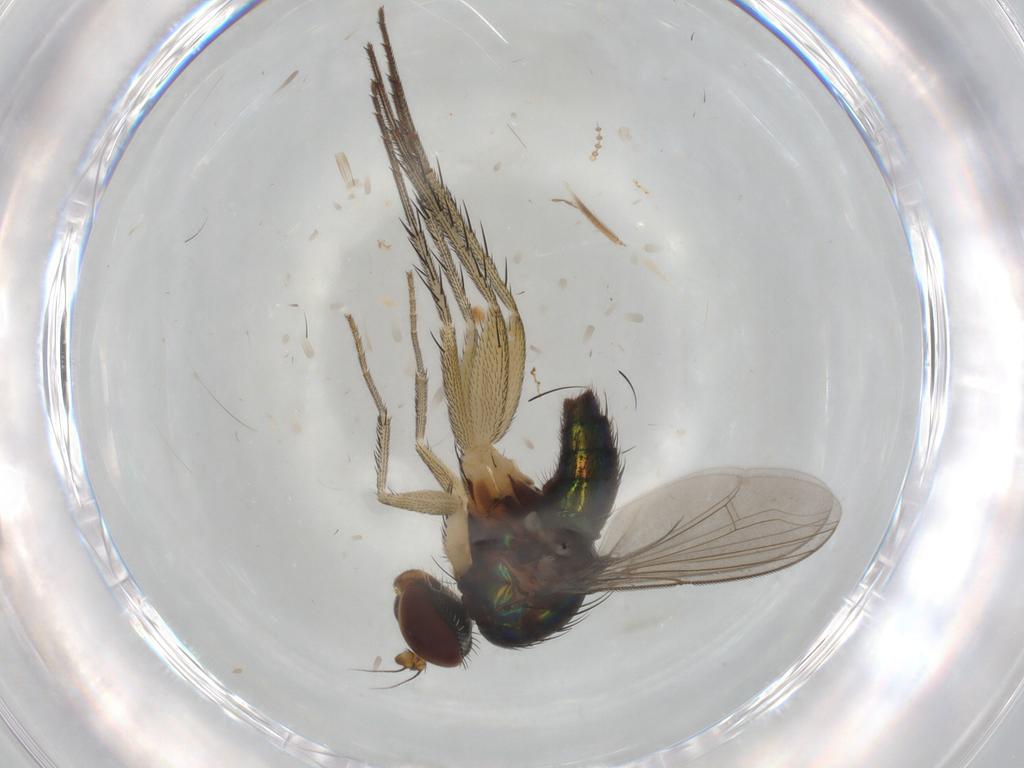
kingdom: Animalia
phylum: Arthropoda
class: Insecta
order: Diptera
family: Dolichopodidae
